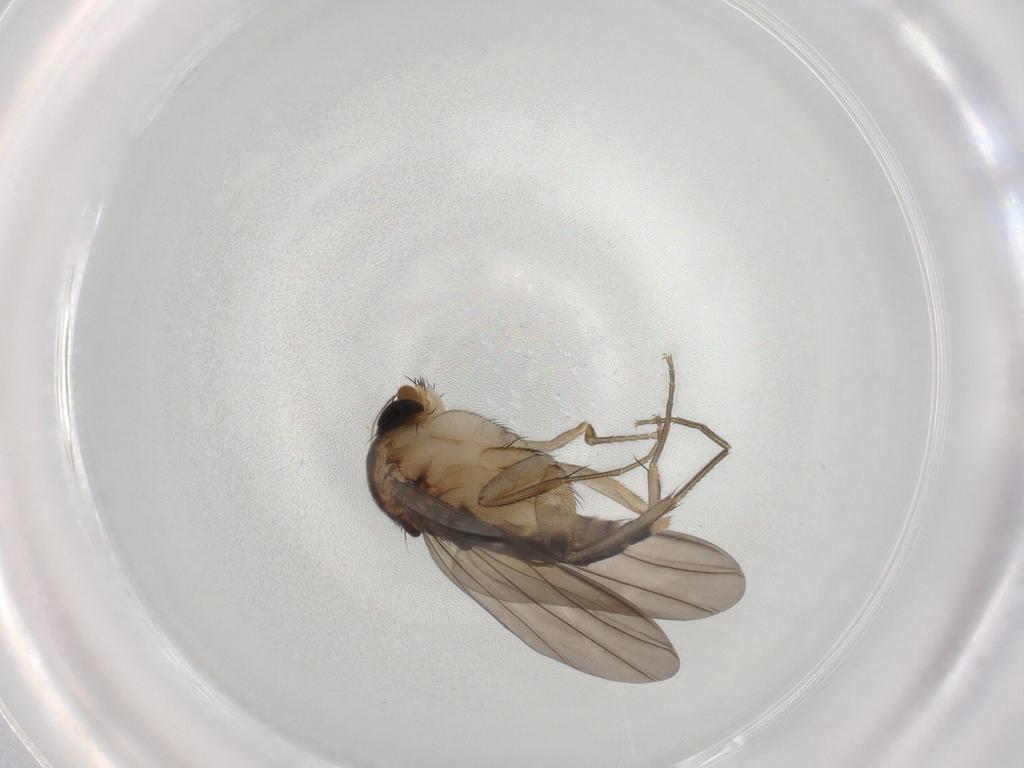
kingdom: Animalia
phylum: Arthropoda
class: Insecta
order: Diptera
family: Phoridae
